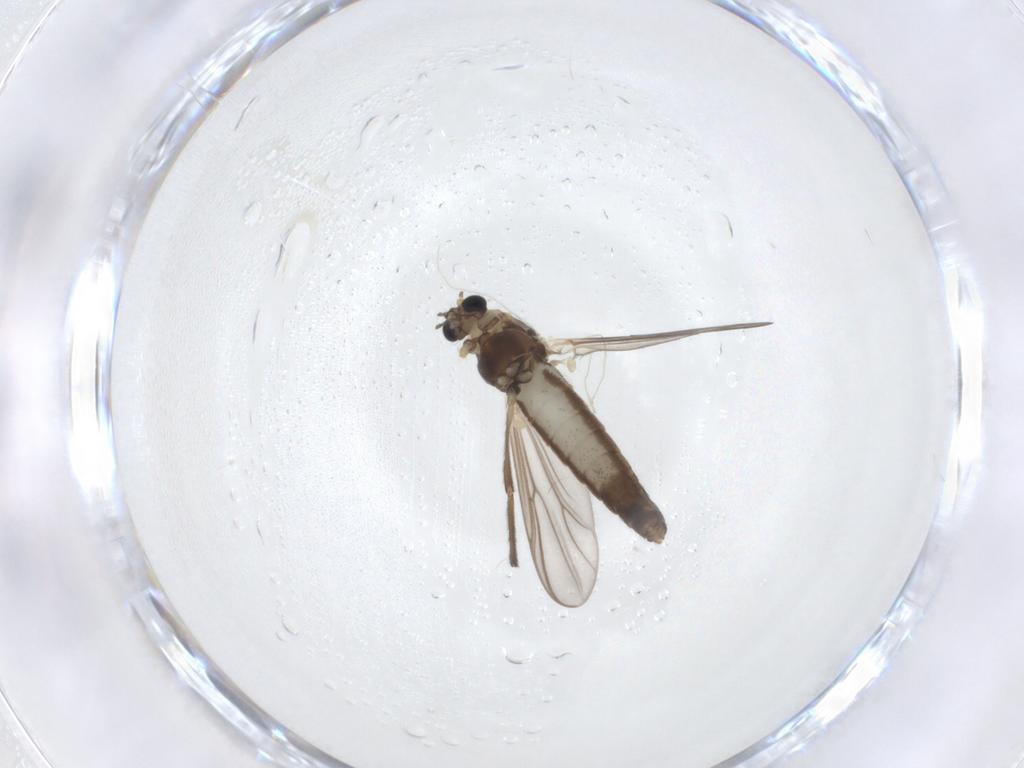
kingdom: Animalia
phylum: Arthropoda
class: Insecta
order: Diptera
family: Chironomidae
